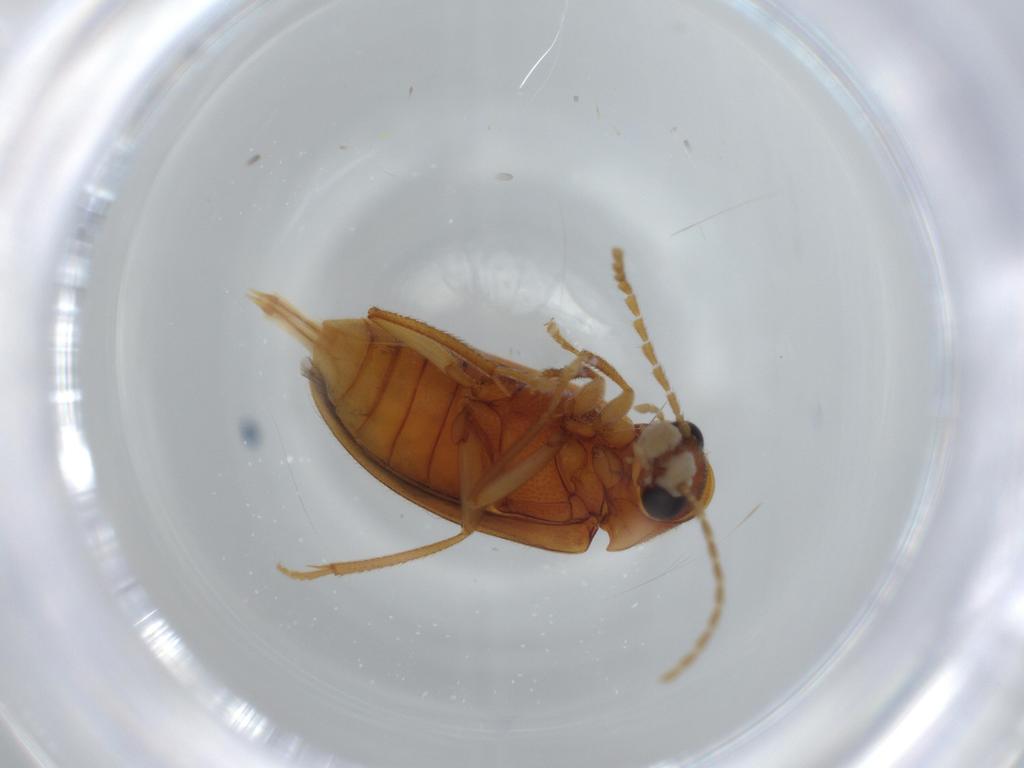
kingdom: Animalia
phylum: Arthropoda
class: Insecta
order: Coleoptera
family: Ptilodactylidae
